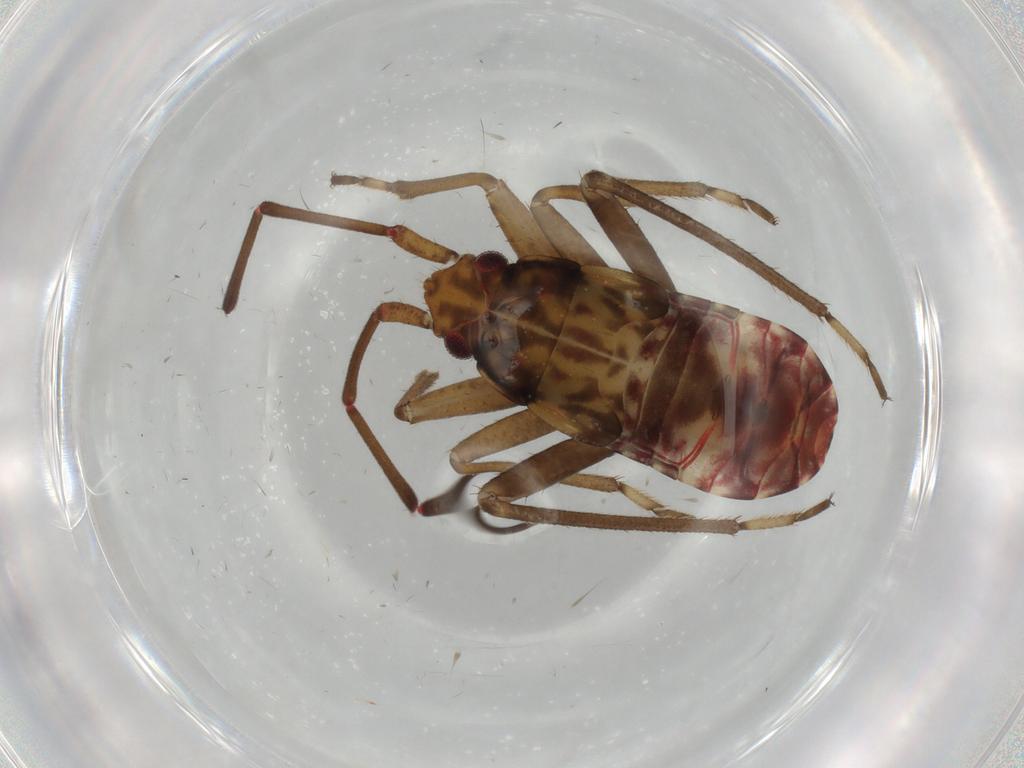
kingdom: Animalia
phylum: Arthropoda
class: Insecta
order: Hemiptera
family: Rhyparochromidae
